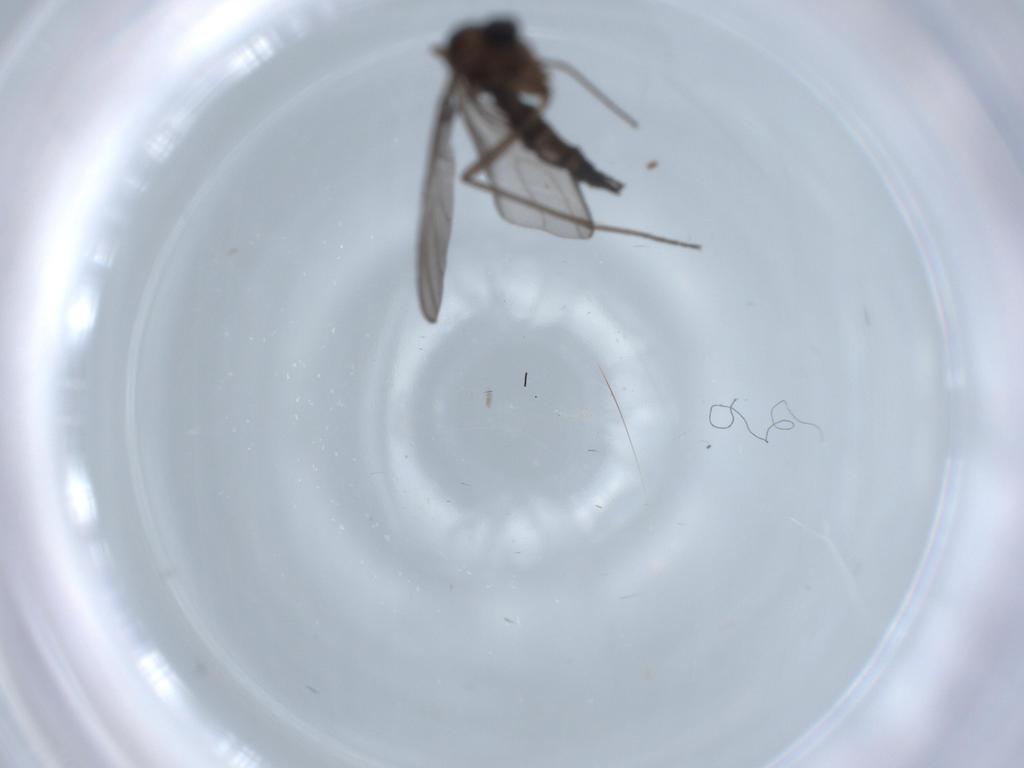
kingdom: Animalia
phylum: Arthropoda
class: Insecta
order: Diptera
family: Sciaridae
